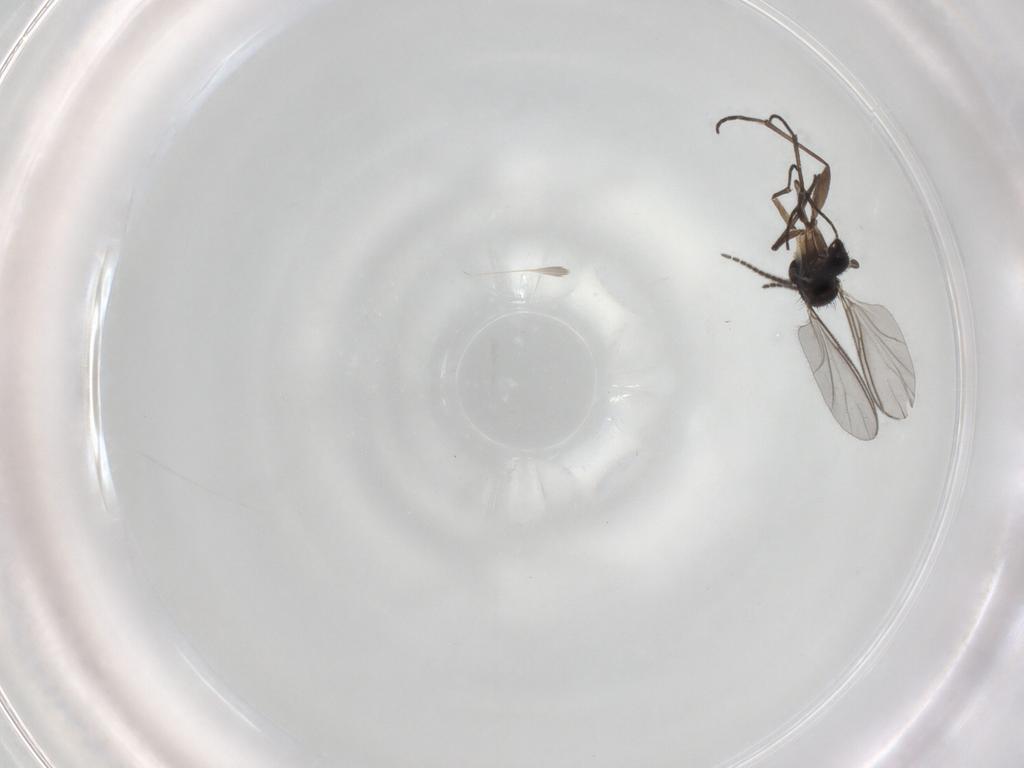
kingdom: Animalia
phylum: Arthropoda
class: Insecta
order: Diptera
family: Sciaridae
